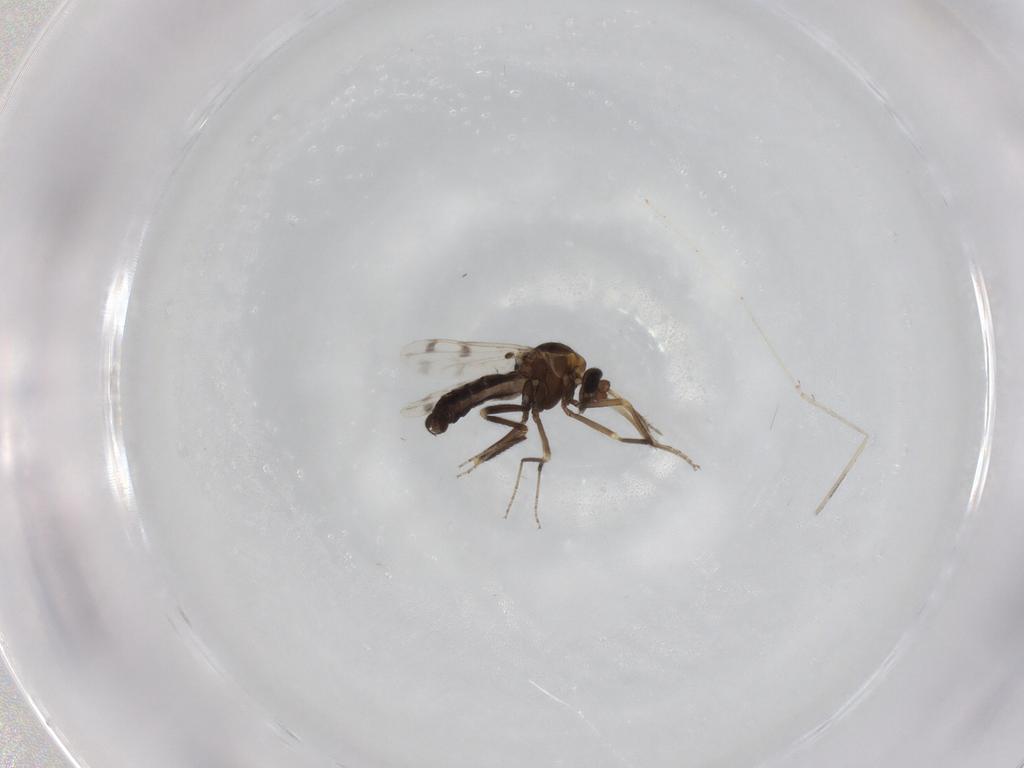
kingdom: Animalia
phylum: Arthropoda
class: Insecta
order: Diptera
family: Ceratopogonidae
